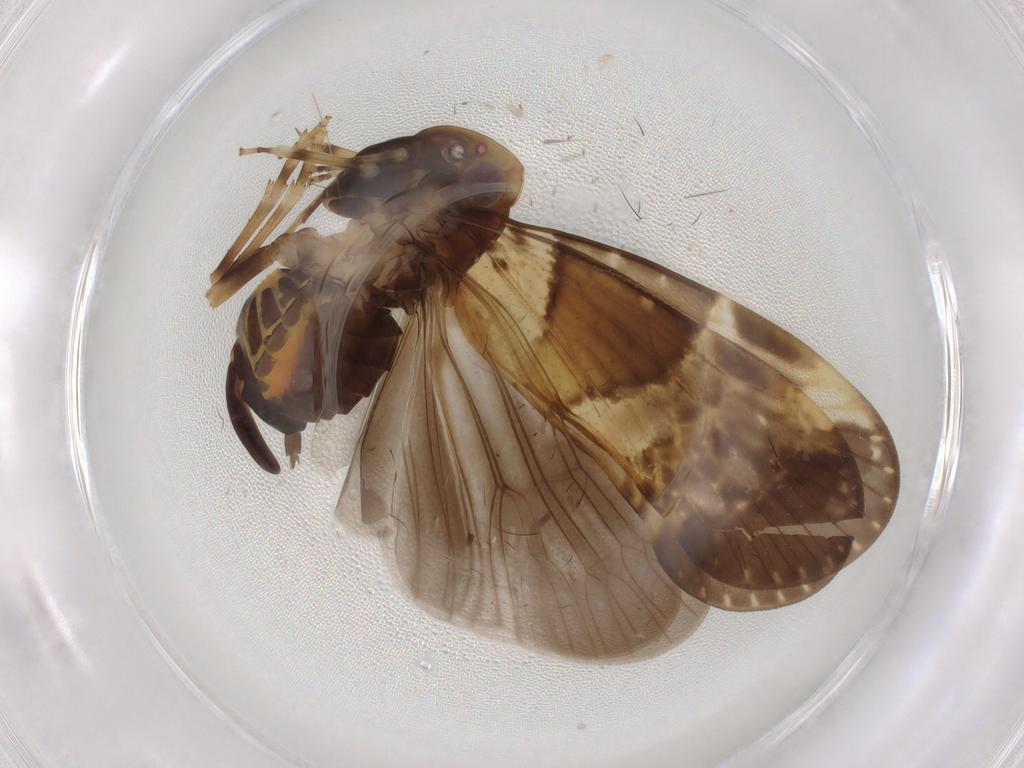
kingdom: Animalia
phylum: Arthropoda
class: Insecta
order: Hemiptera
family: Cixiidae
